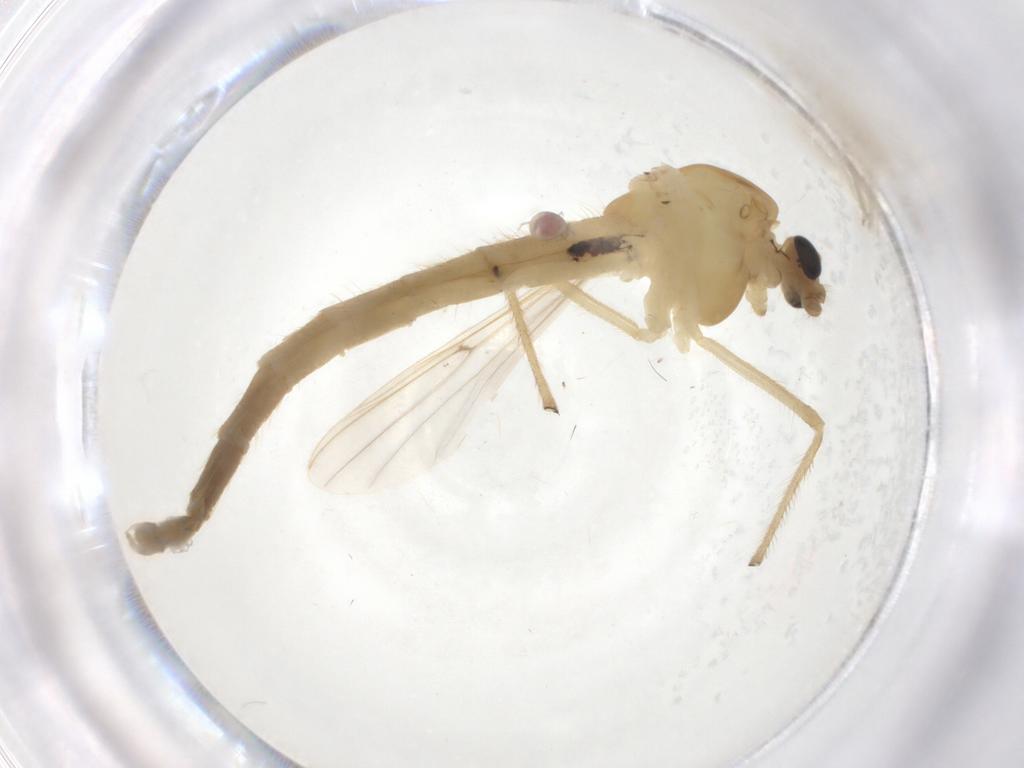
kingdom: Animalia
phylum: Arthropoda
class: Insecta
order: Diptera
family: Chironomidae
